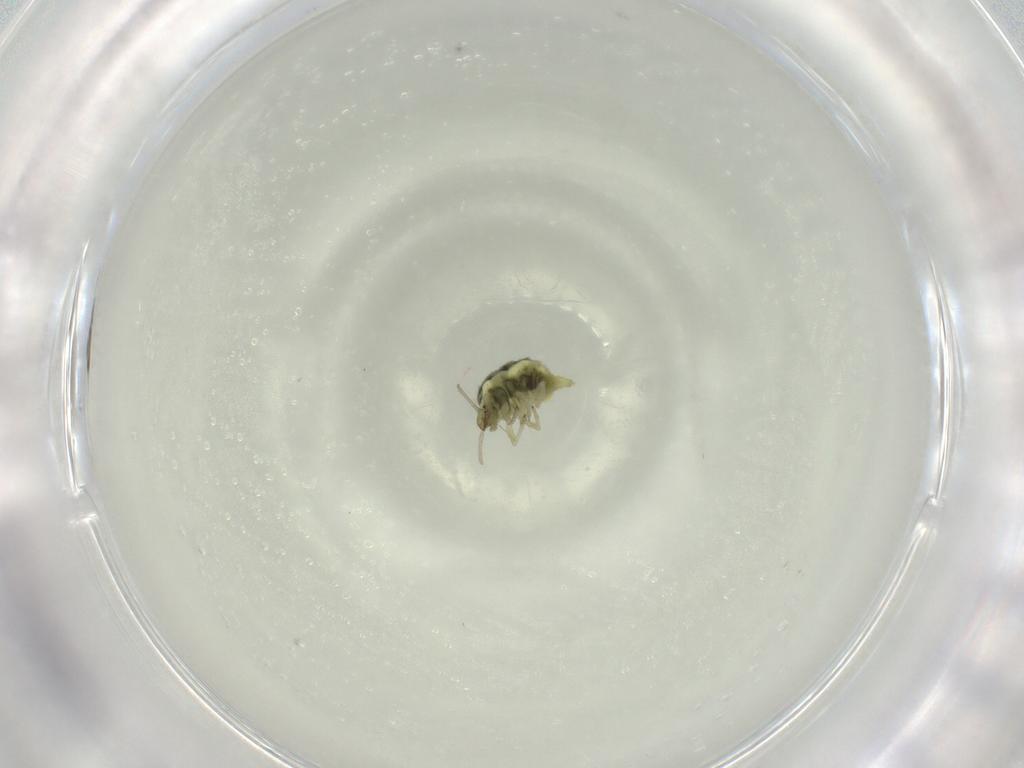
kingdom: Animalia
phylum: Arthropoda
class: Insecta
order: Neuroptera
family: Coniopterygidae
